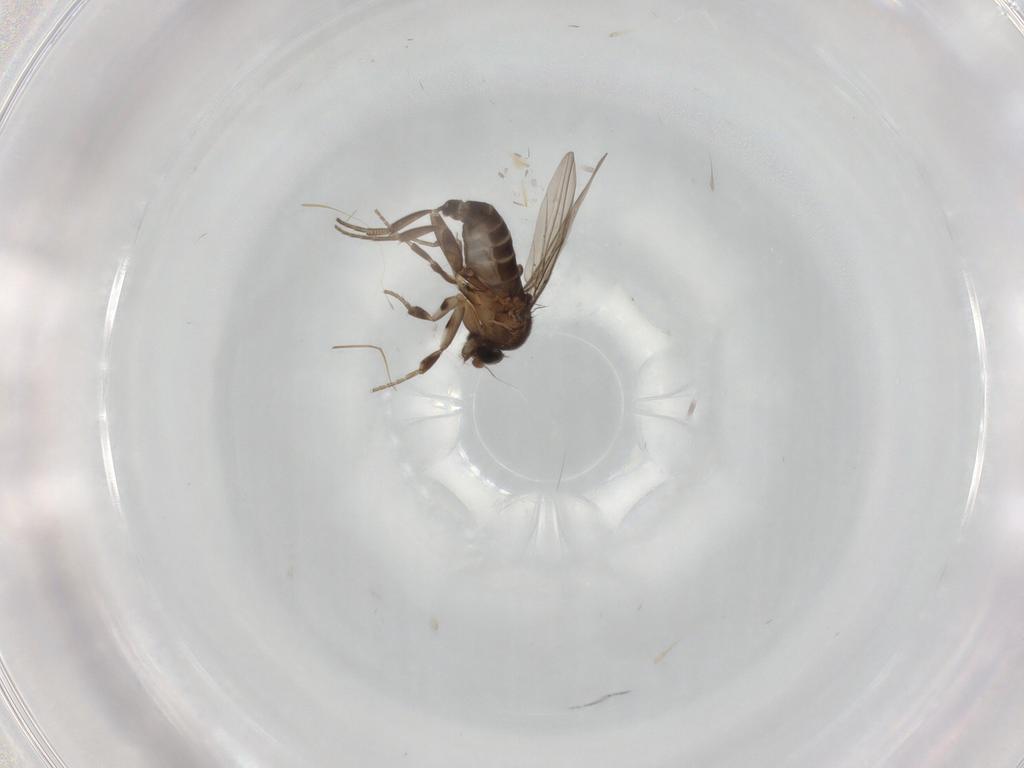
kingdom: Animalia
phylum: Arthropoda
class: Insecta
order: Diptera
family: Phoridae
